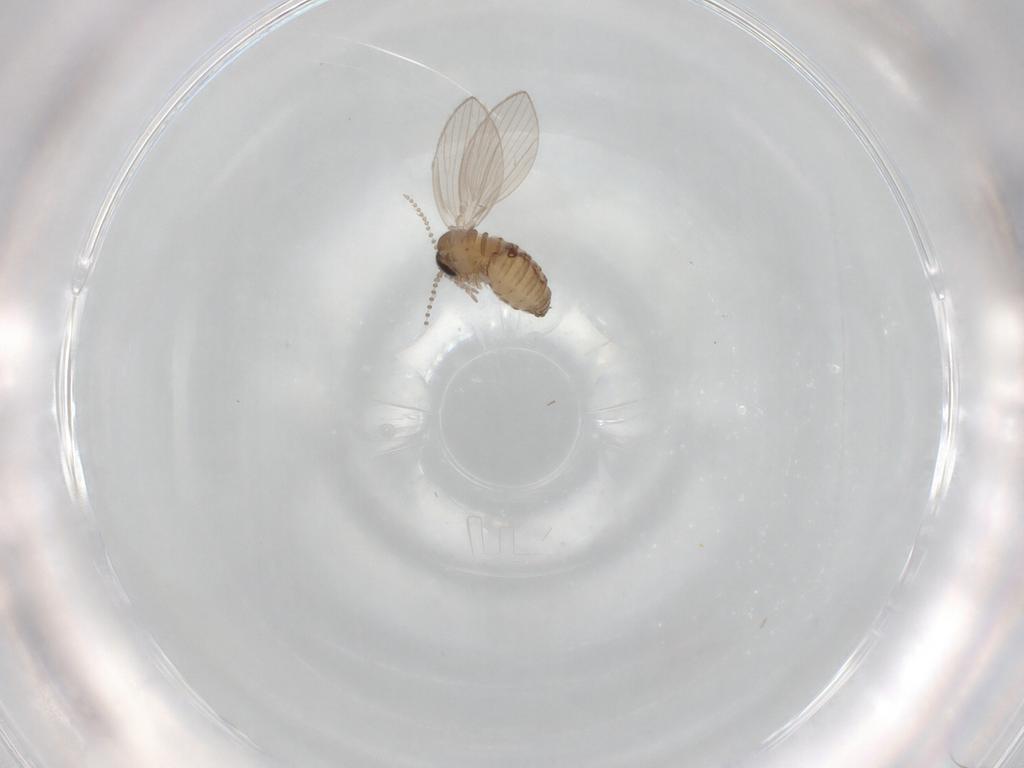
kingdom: Animalia
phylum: Arthropoda
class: Insecta
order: Diptera
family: Psychodidae
